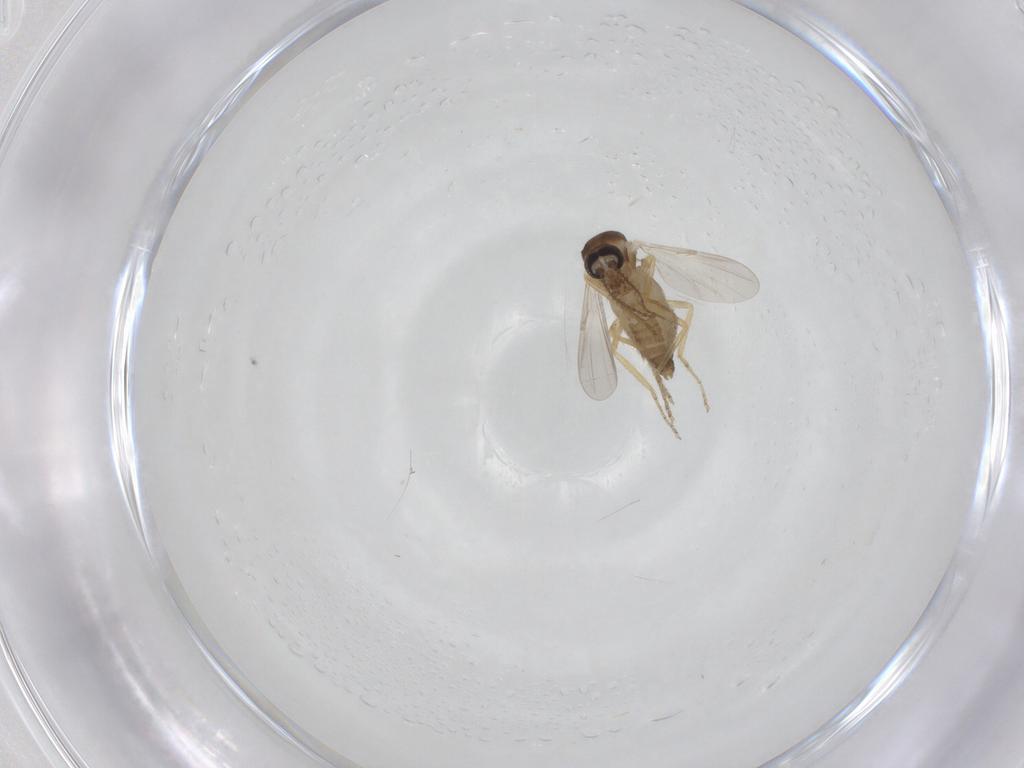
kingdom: Animalia
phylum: Arthropoda
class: Insecta
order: Diptera
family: Ceratopogonidae
